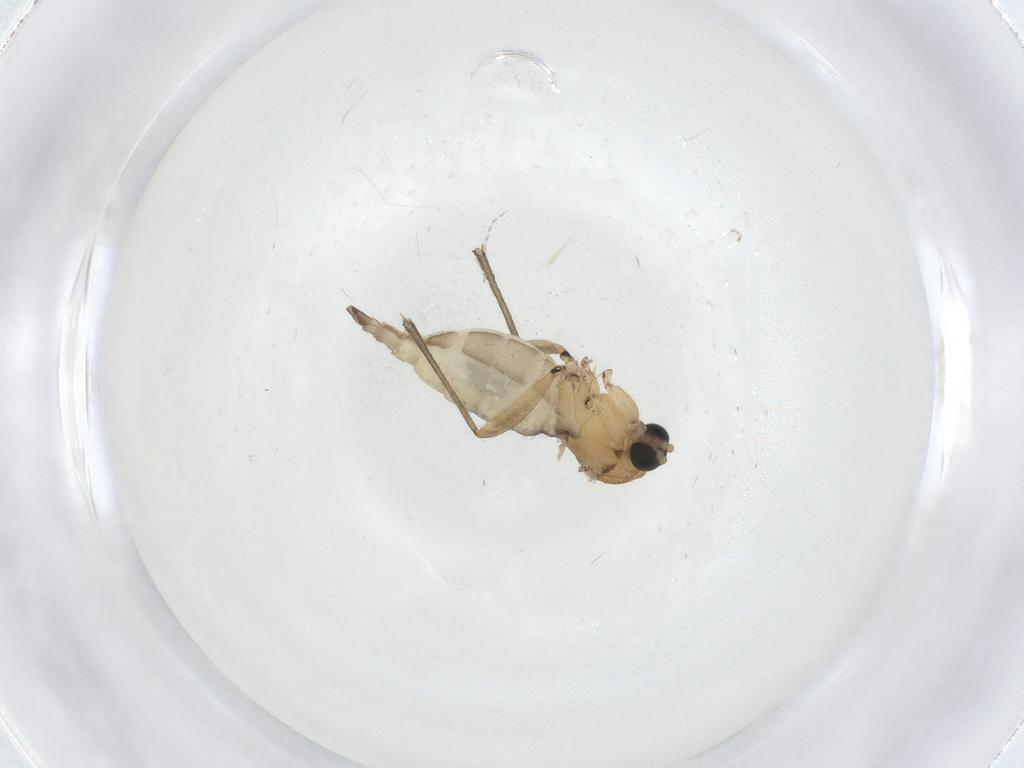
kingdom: Animalia
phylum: Arthropoda
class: Insecta
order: Diptera
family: Sciaridae
